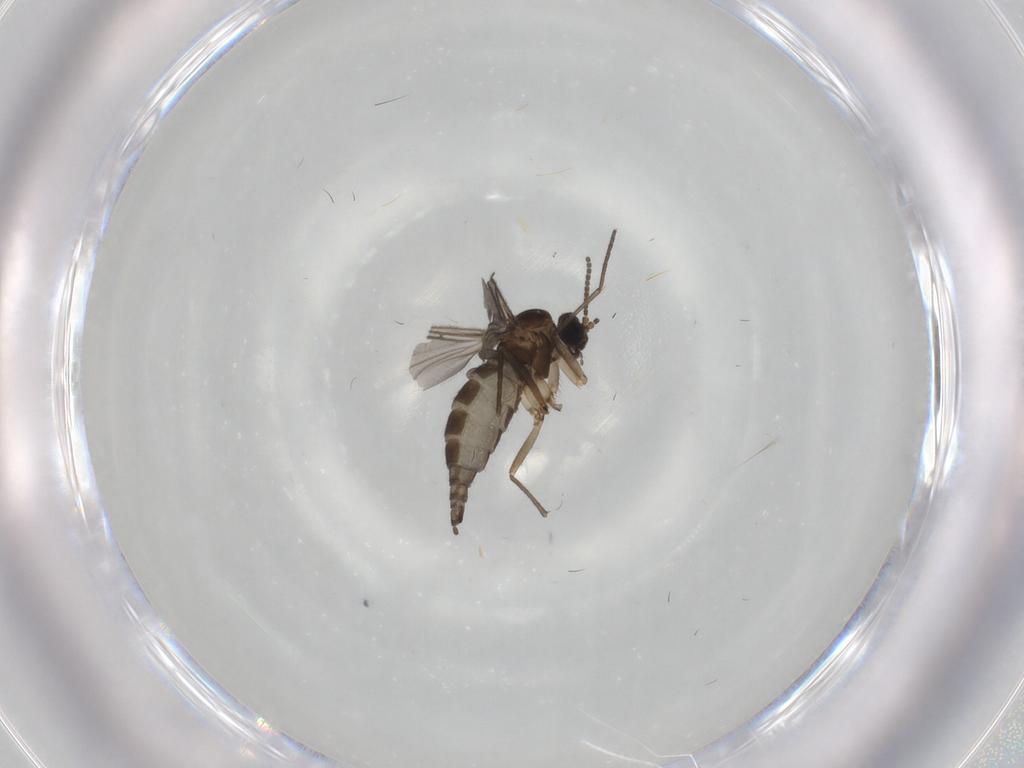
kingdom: Animalia
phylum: Arthropoda
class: Insecta
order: Diptera
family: Sciaridae
